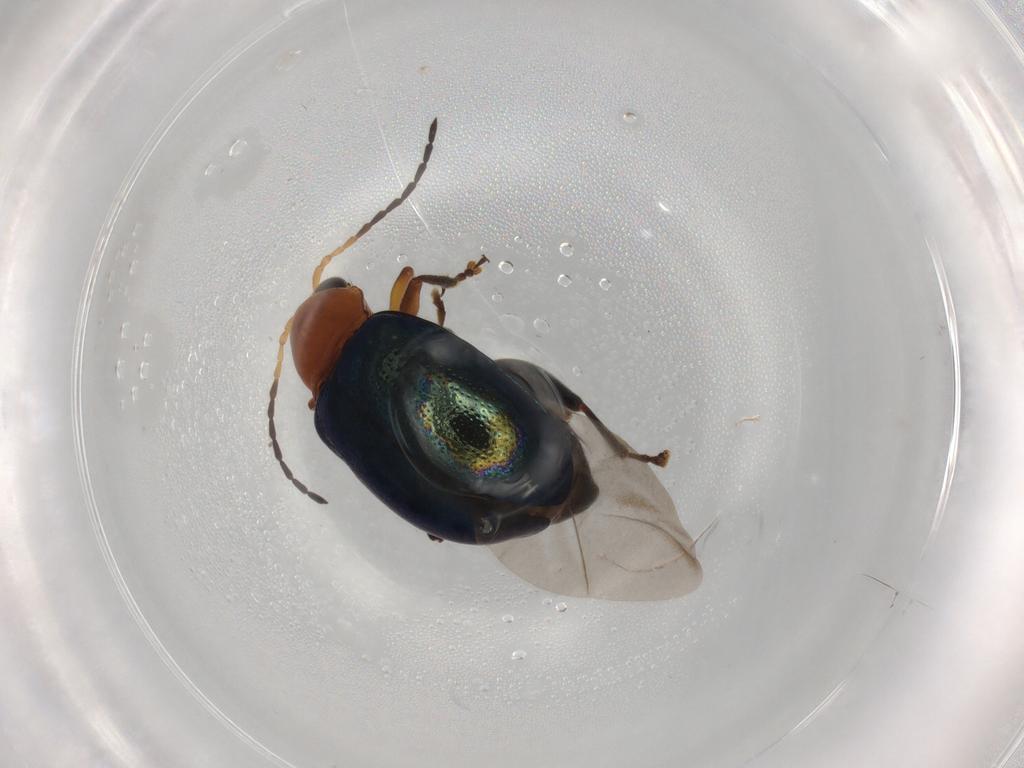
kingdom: Animalia
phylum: Arthropoda
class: Insecta
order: Coleoptera
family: Chrysomelidae
